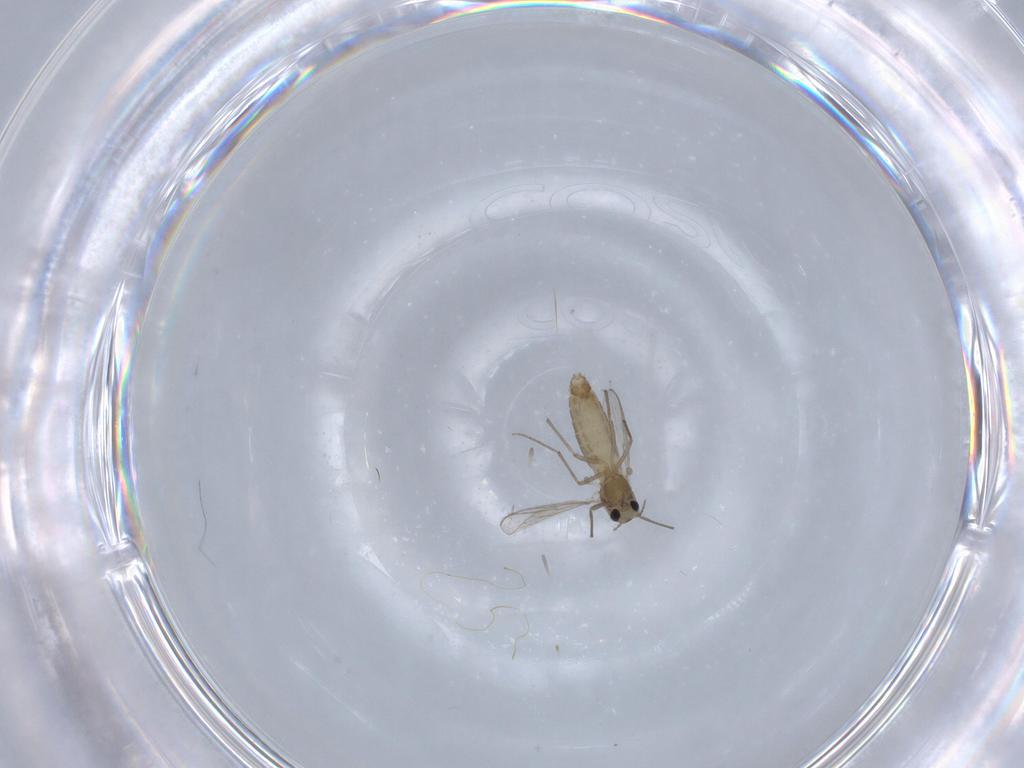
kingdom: Animalia
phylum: Arthropoda
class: Insecta
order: Diptera
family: Chironomidae
